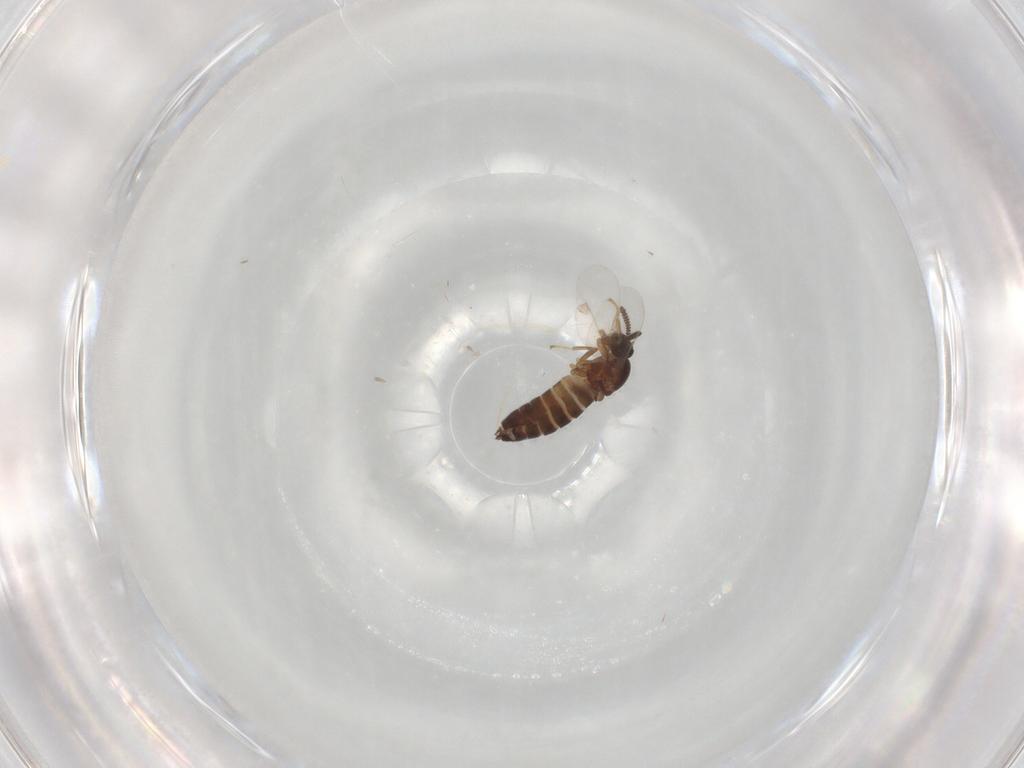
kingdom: Animalia
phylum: Arthropoda
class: Insecta
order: Diptera
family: Scatopsidae
